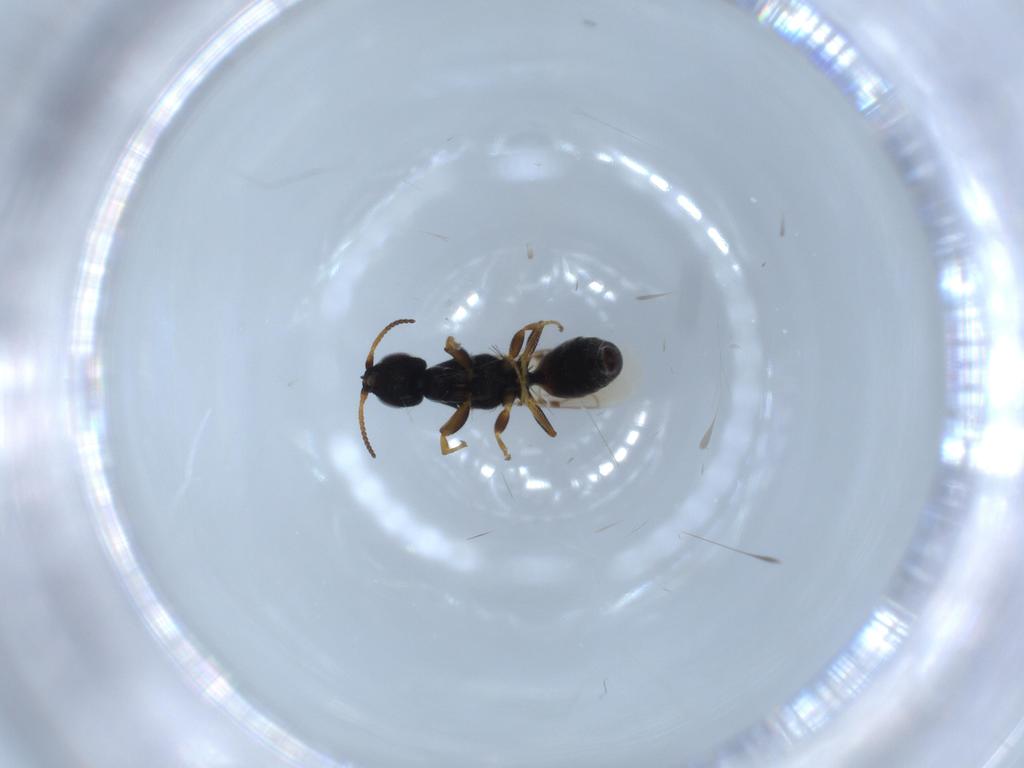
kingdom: Animalia
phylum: Arthropoda
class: Insecta
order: Hymenoptera
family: Bethylidae
